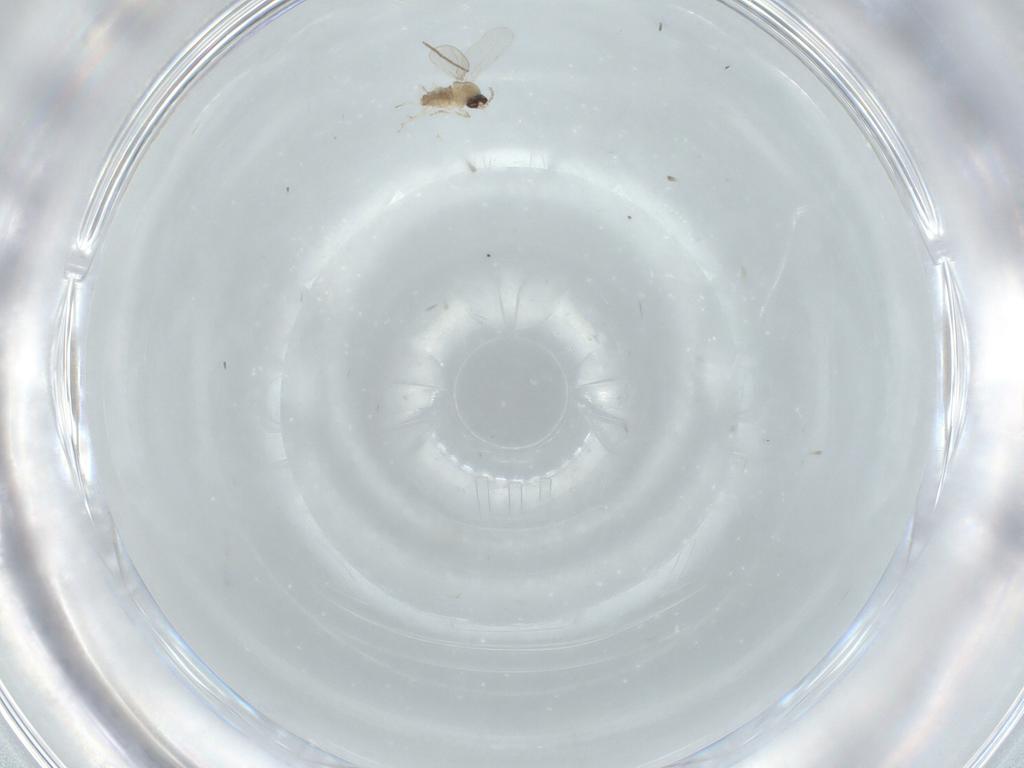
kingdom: Animalia
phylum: Arthropoda
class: Insecta
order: Diptera
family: Cecidomyiidae
